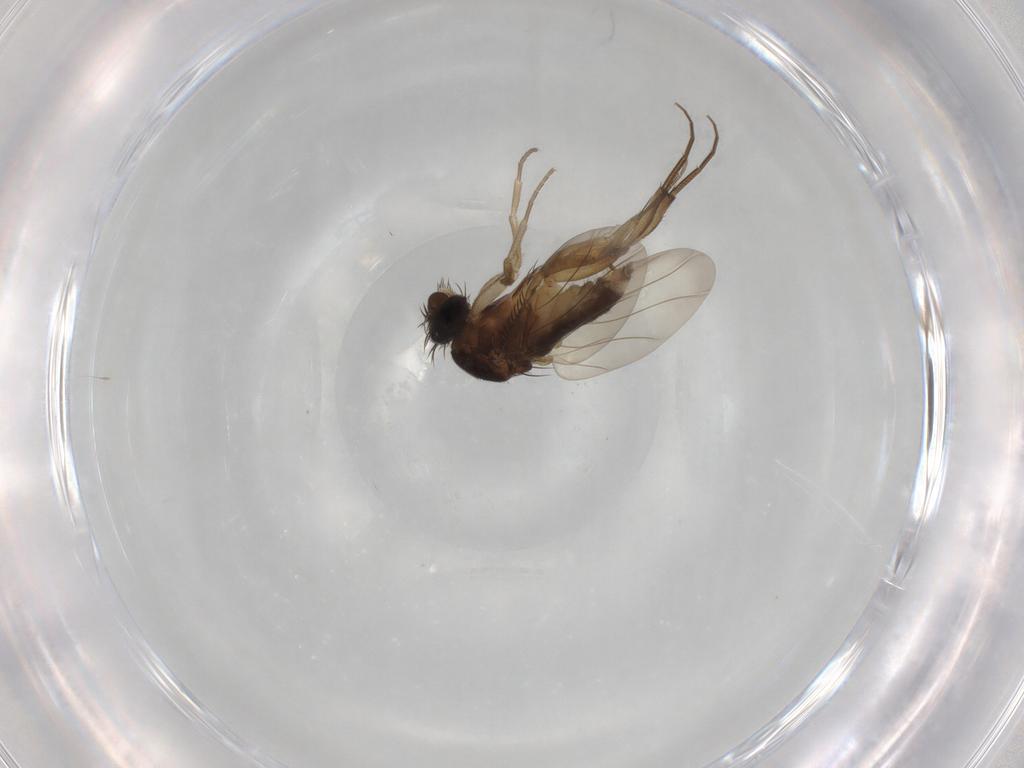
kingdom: Animalia
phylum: Arthropoda
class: Insecta
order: Diptera
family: Phoridae
